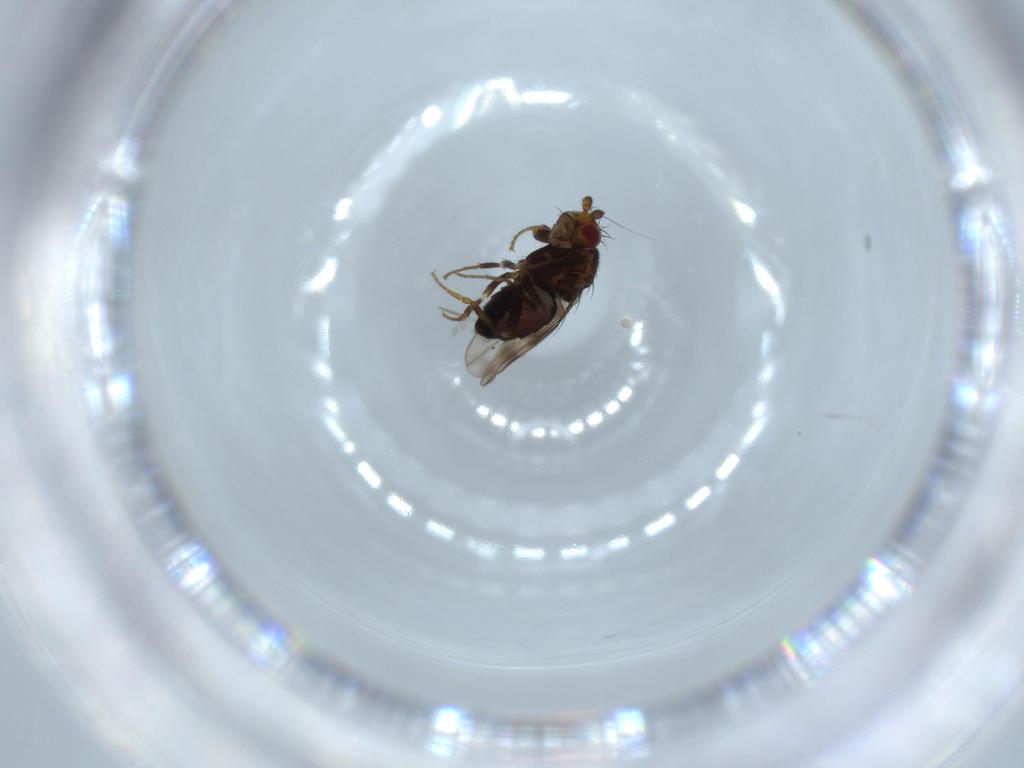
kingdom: Animalia
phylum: Arthropoda
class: Insecta
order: Diptera
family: Sphaeroceridae
